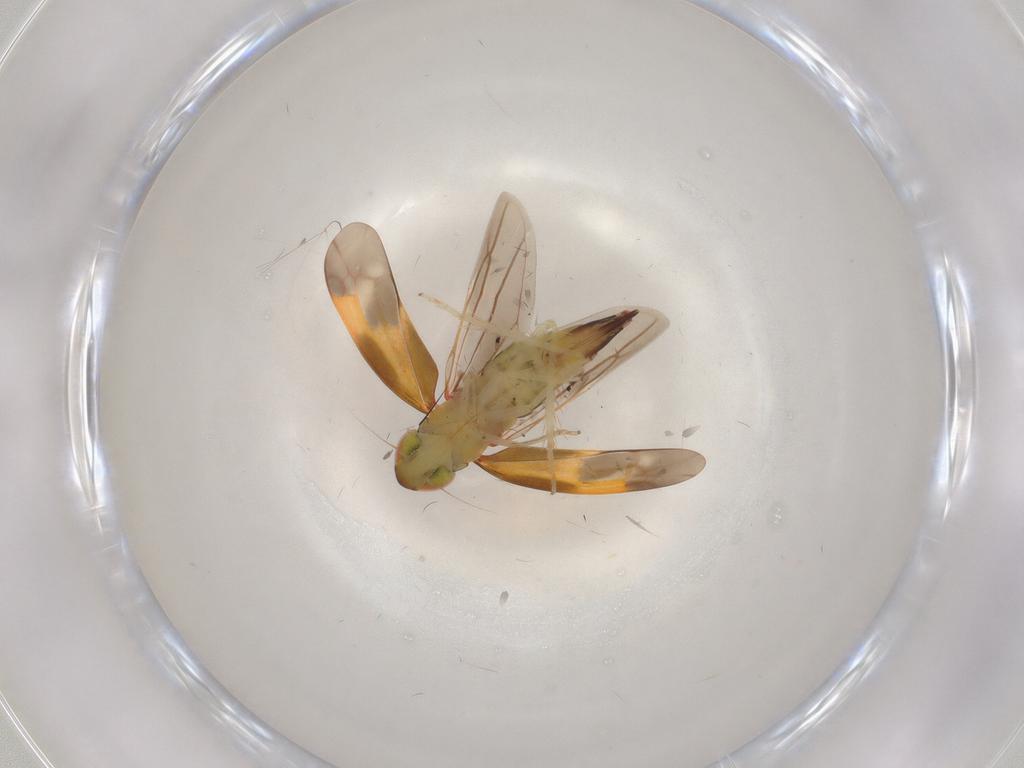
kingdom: Animalia
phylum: Arthropoda
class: Insecta
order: Hemiptera
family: Cicadellidae
